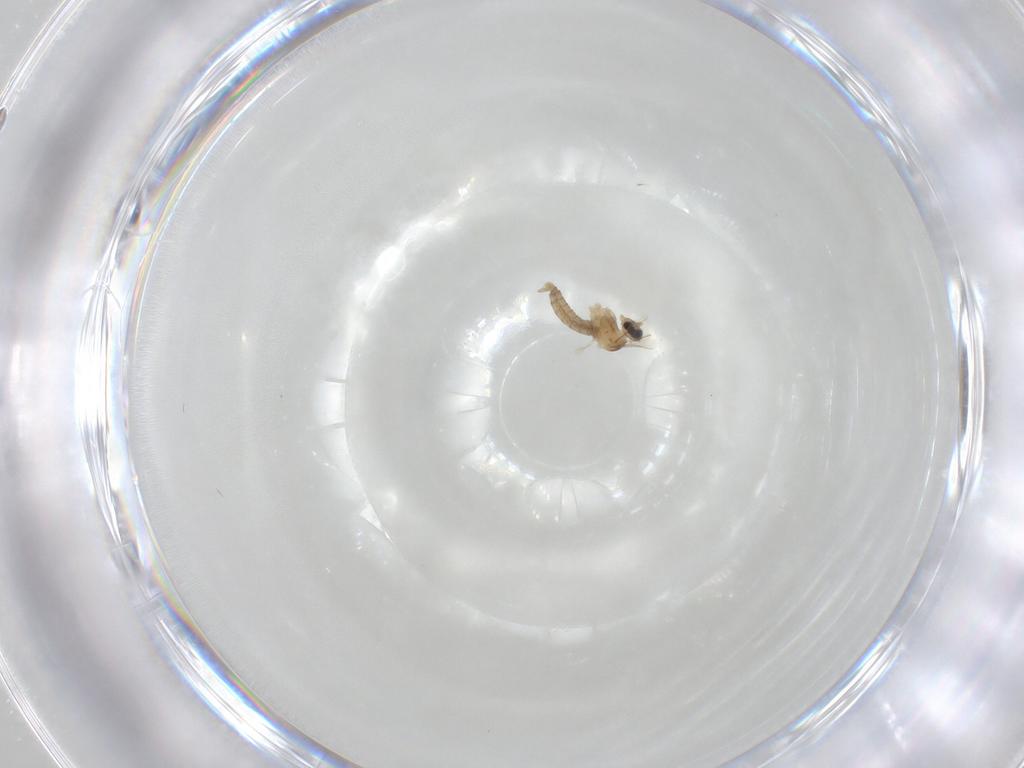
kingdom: Animalia
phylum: Arthropoda
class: Insecta
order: Diptera
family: Cecidomyiidae
